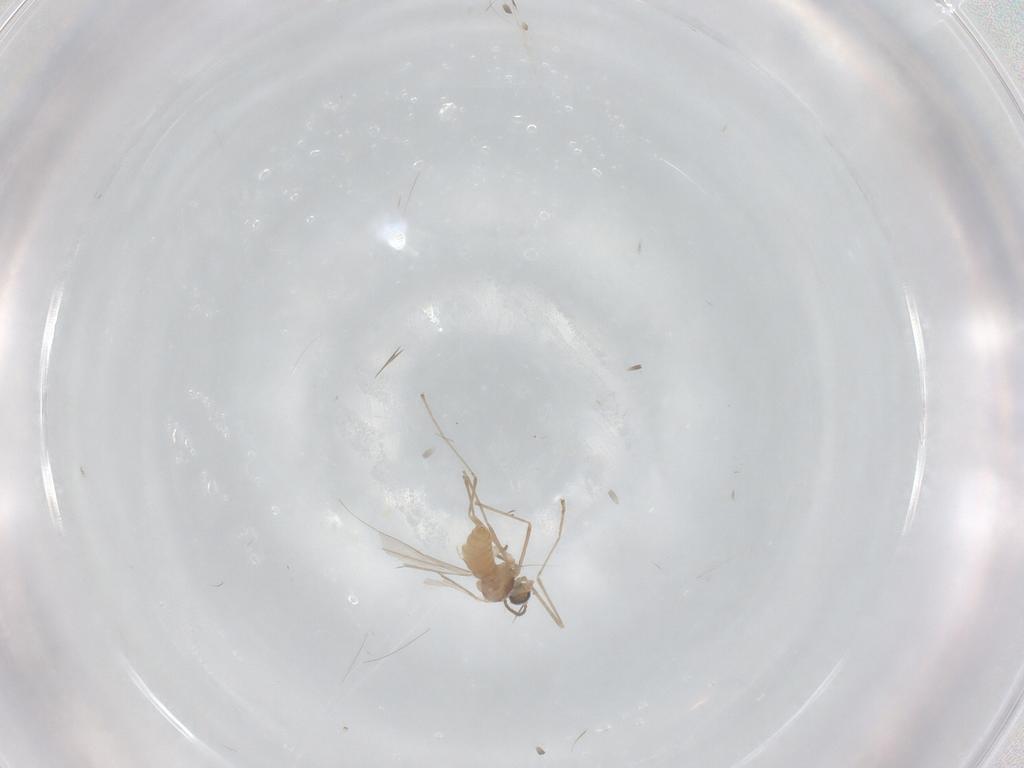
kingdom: Animalia
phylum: Arthropoda
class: Insecta
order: Diptera
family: Cecidomyiidae
